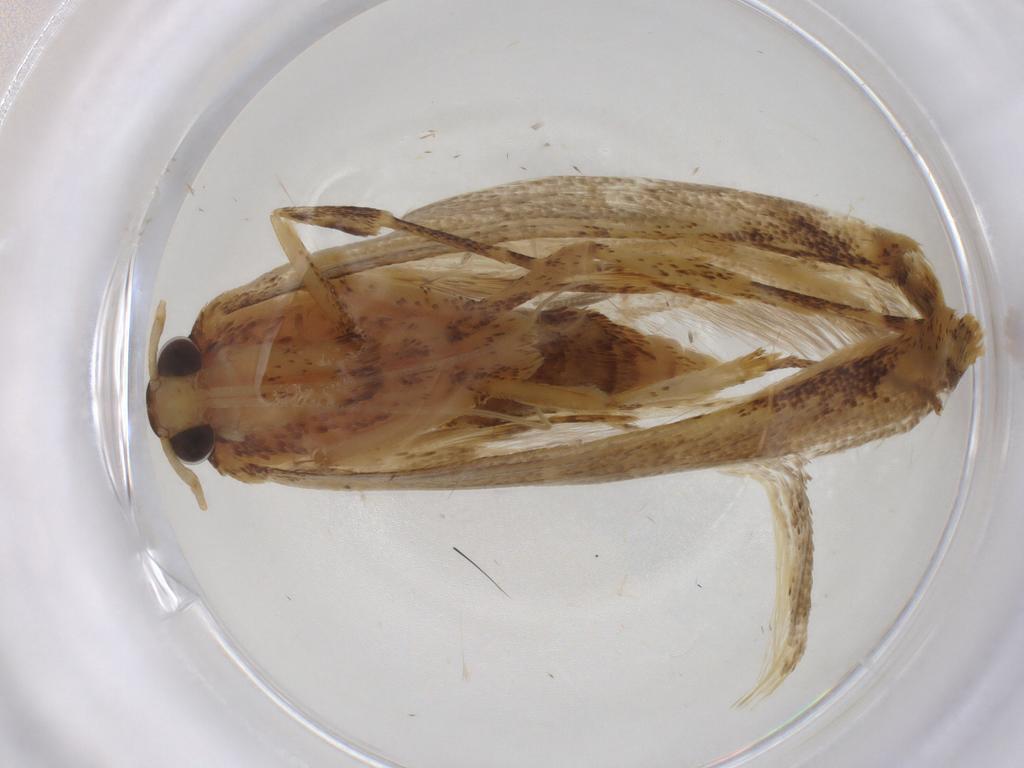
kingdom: Animalia
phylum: Arthropoda
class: Insecta
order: Lepidoptera
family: Lecithoceridae
